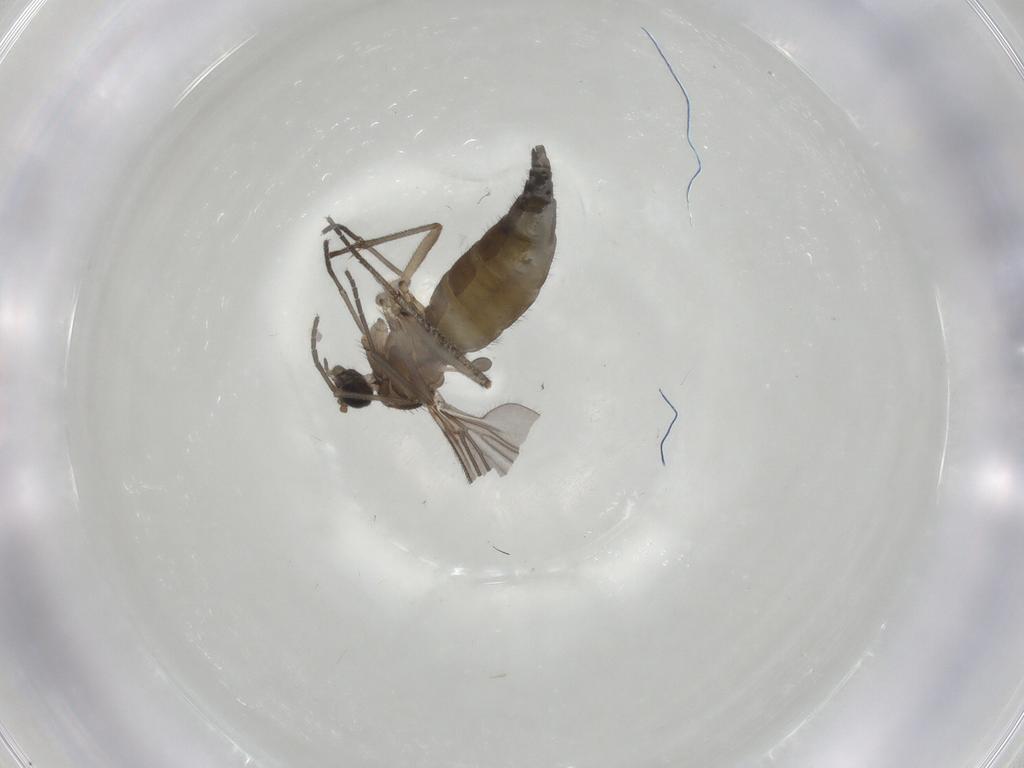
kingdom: Animalia
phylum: Arthropoda
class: Insecta
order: Diptera
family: Sciaridae
